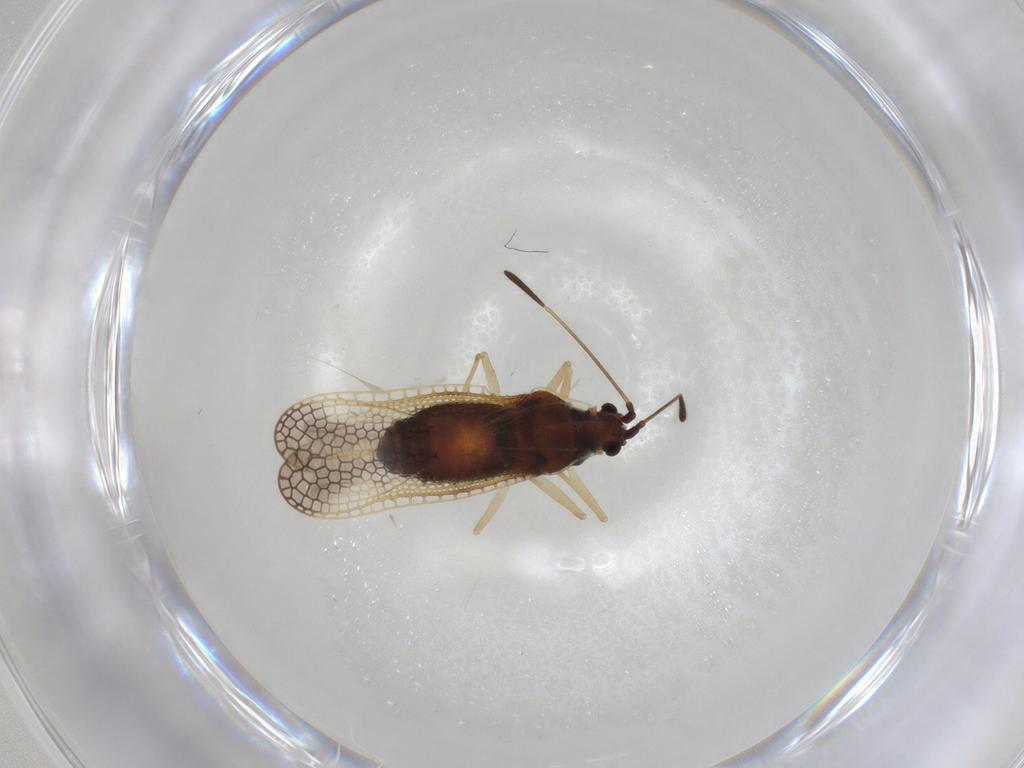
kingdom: Animalia
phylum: Arthropoda
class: Insecta
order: Hemiptera
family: Tingidae
